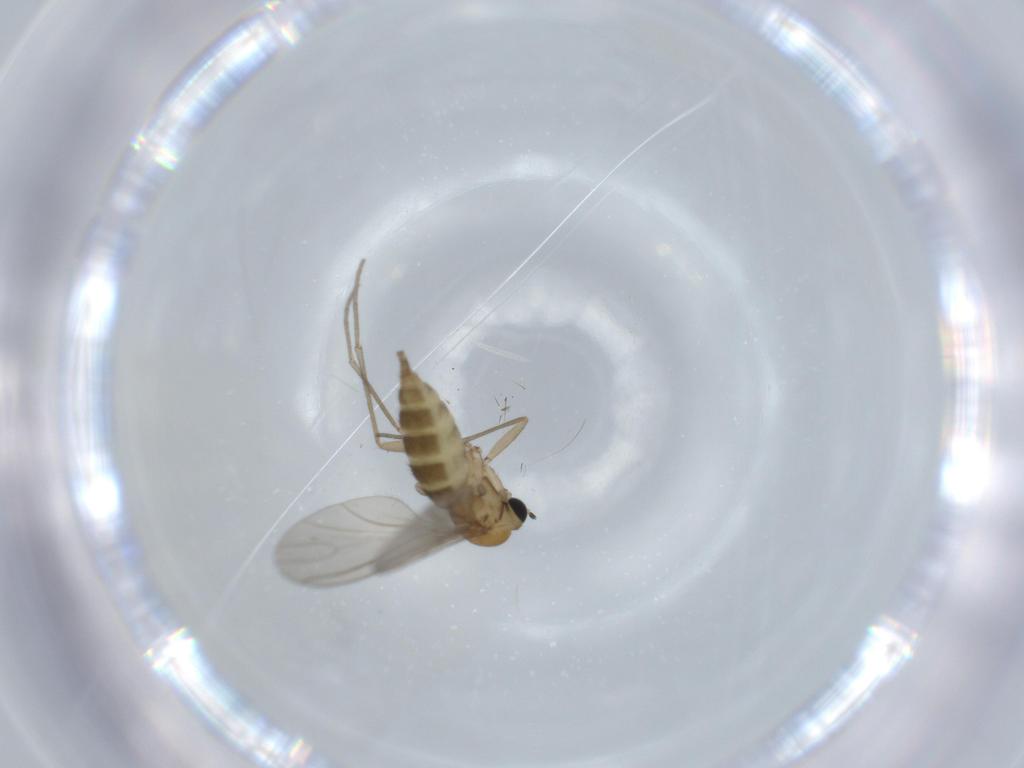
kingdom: Animalia
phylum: Arthropoda
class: Insecta
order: Diptera
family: Sciaridae
